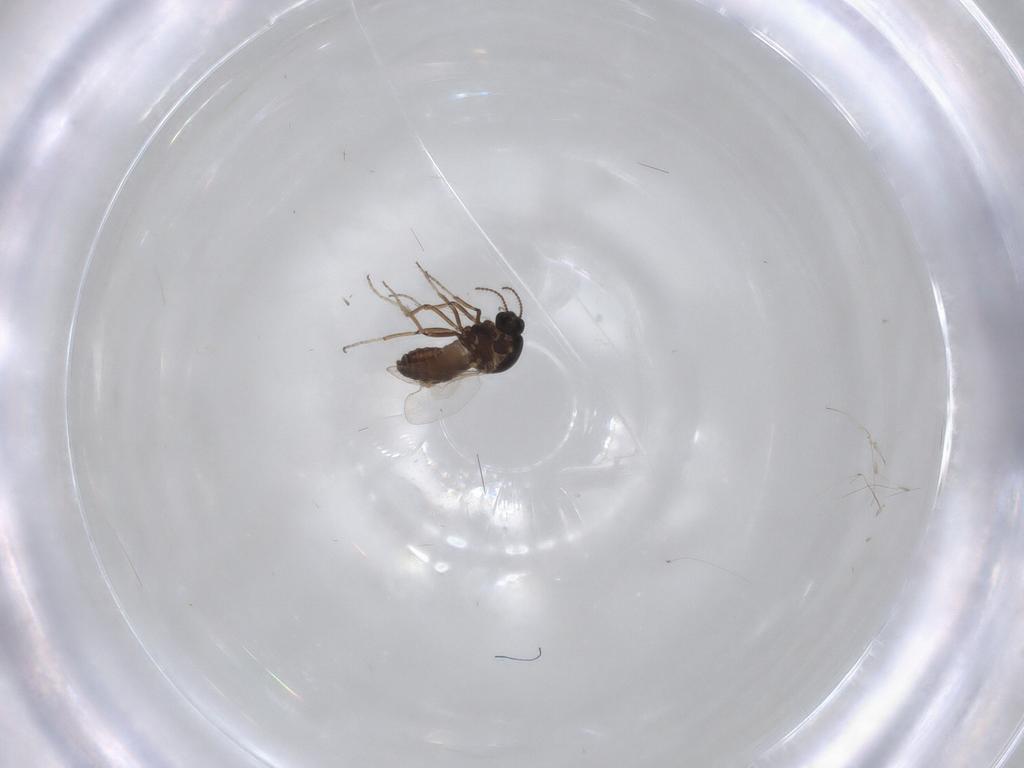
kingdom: Animalia
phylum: Arthropoda
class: Insecta
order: Diptera
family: Ceratopogonidae
